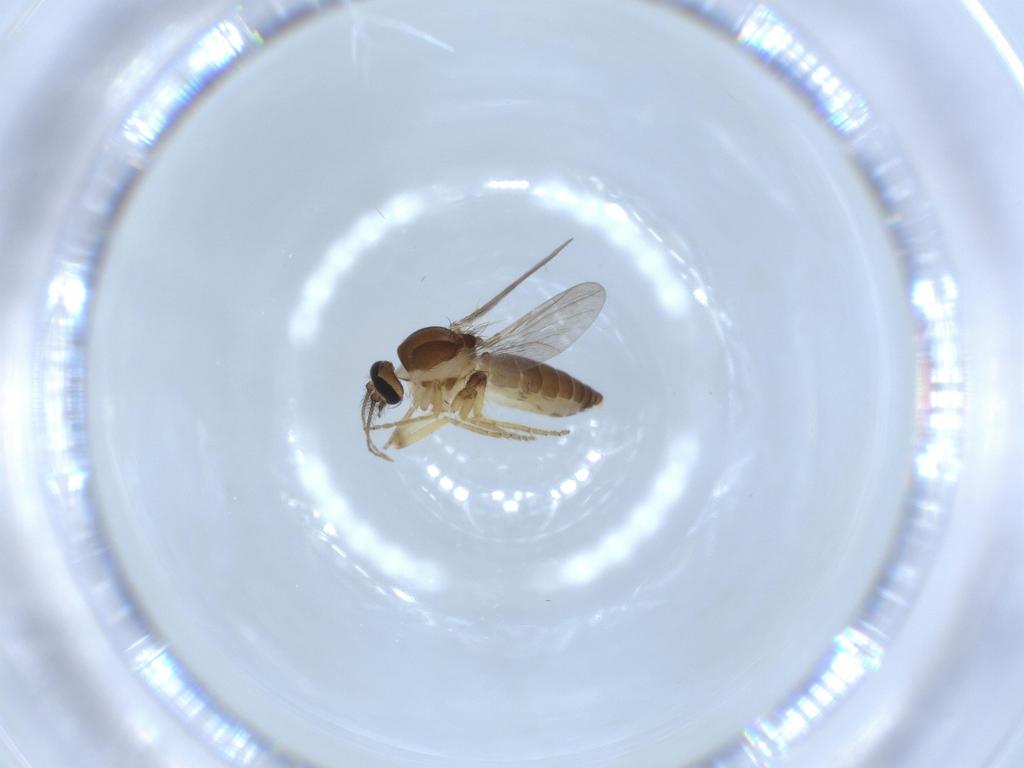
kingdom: Animalia
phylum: Arthropoda
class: Insecta
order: Diptera
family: Ceratopogonidae
